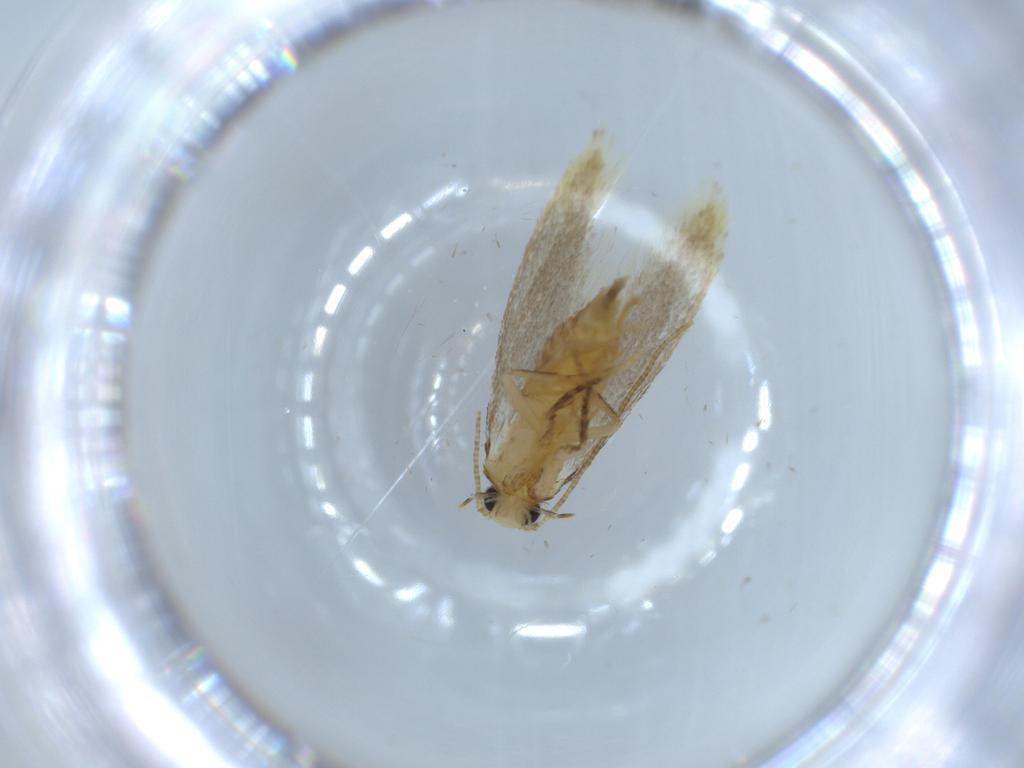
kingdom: Animalia
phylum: Arthropoda
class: Insecta
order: Lepidoptera
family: Tineidae
